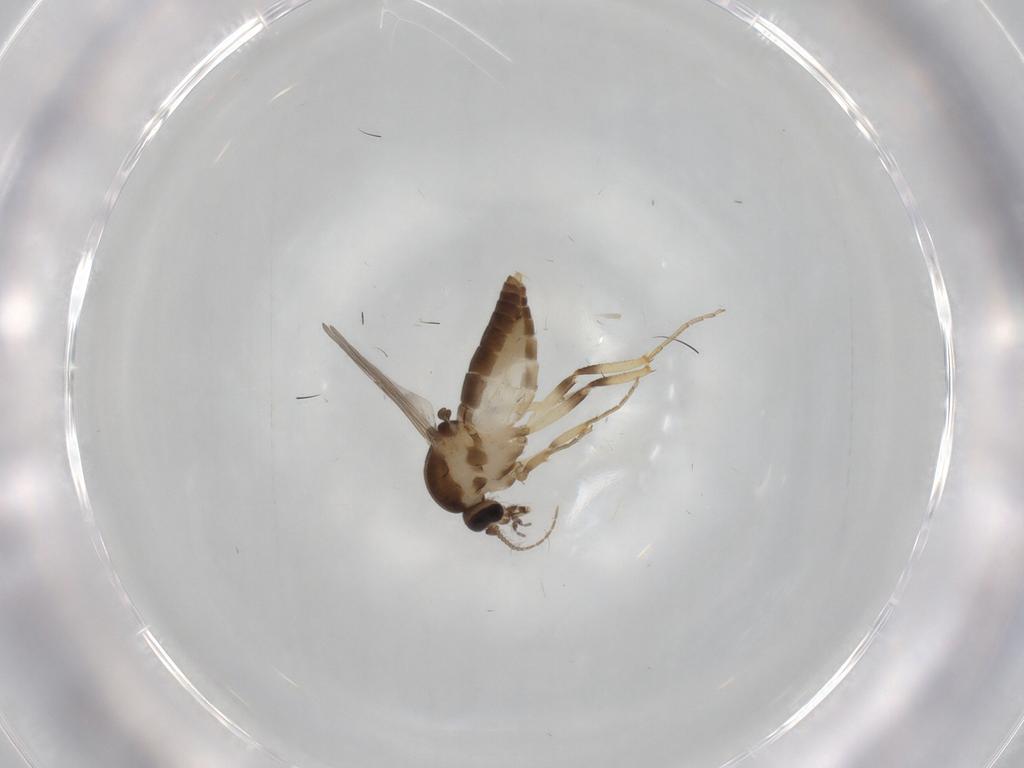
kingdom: Animalia
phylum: Arthropoda
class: Insecta
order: Diptera
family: Ceratopogonidae
